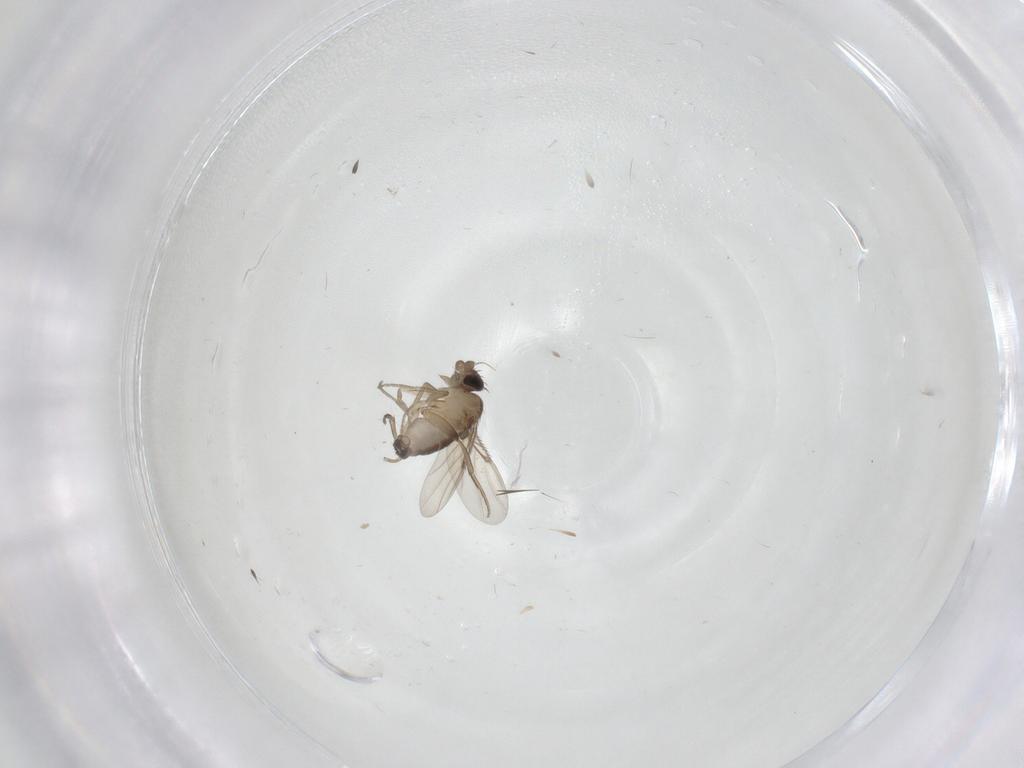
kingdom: Animalia
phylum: Arthropoda
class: Insecta
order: Diptera
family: Phoridae
